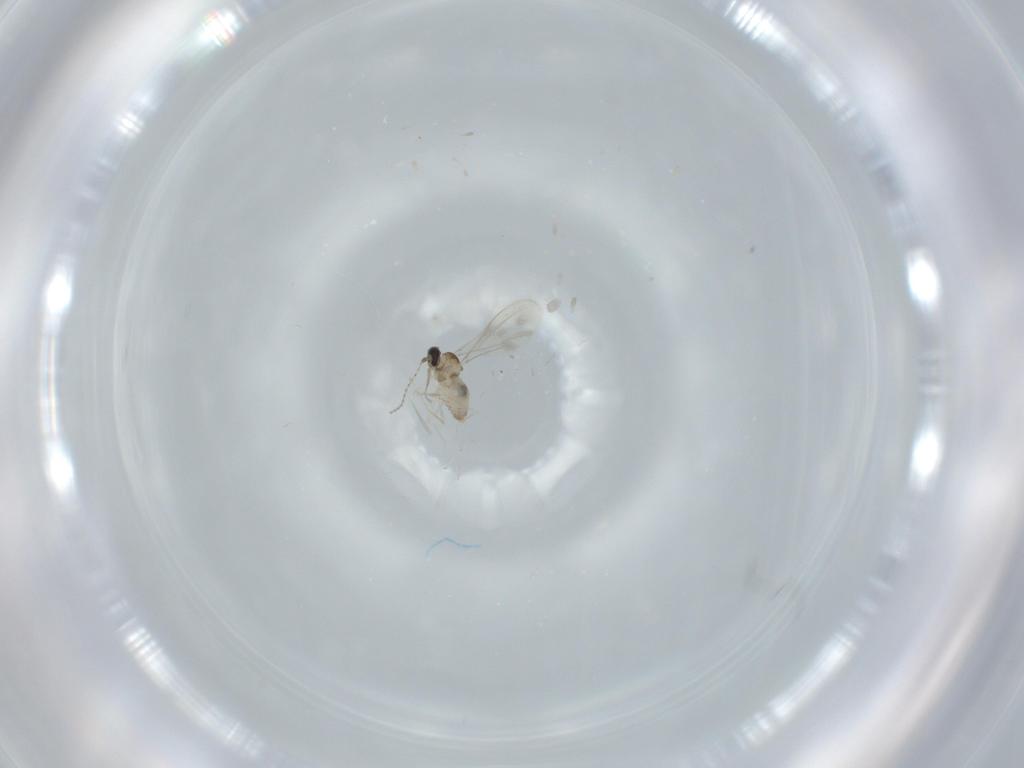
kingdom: Animalia
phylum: Arthropoda
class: Insecta
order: Diptera
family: Cecidomyiidae
